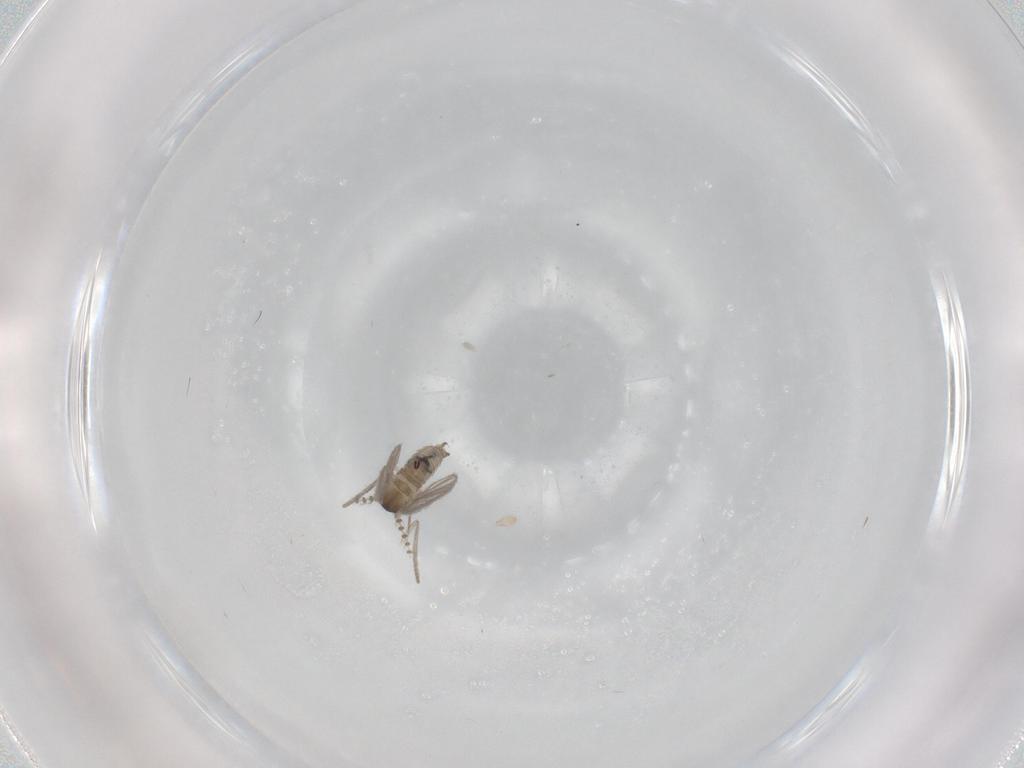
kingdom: Animalia
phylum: Arthropoda
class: Insecta
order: Diptera
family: Psychodidae
